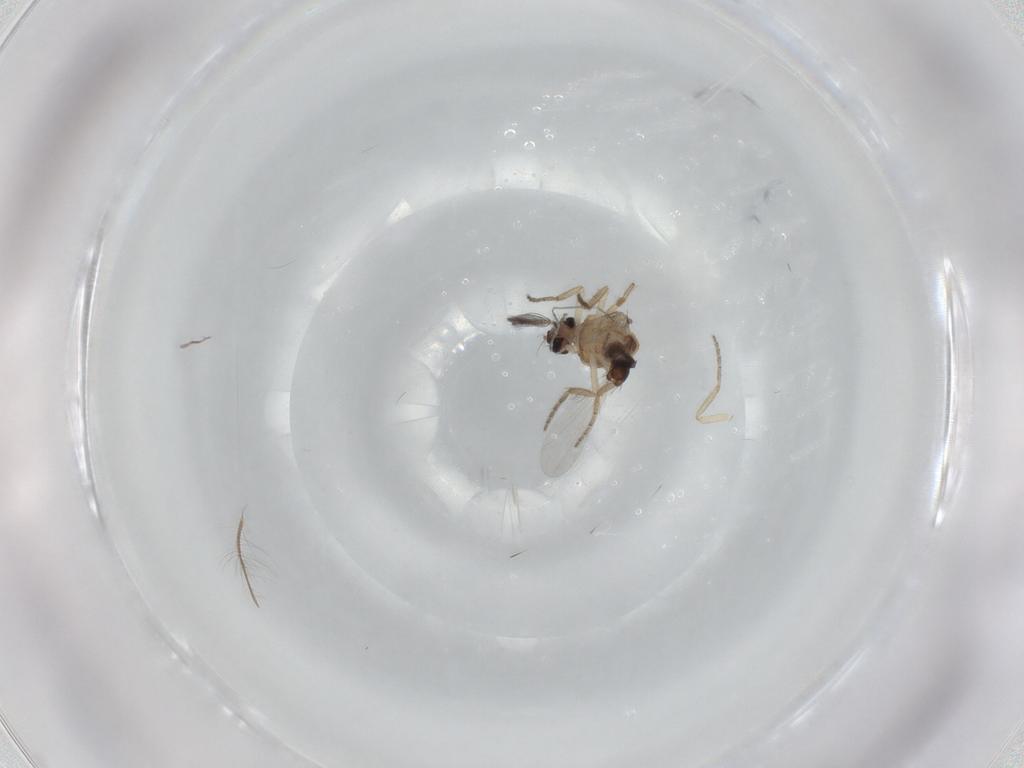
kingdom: Animalia
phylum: Arthropoda
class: Insecta
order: Diptera
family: Ceratopogonidae
